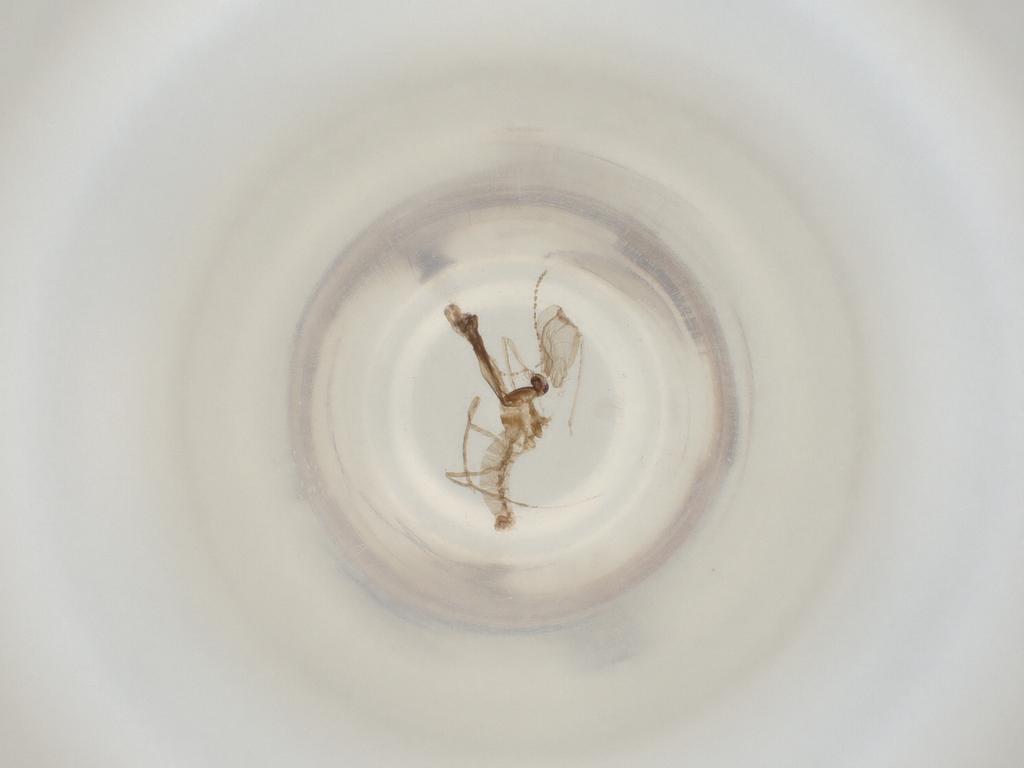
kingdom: Animalia
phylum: Arthropoda
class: Insecta
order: Diptera
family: Cecidomyiidae
